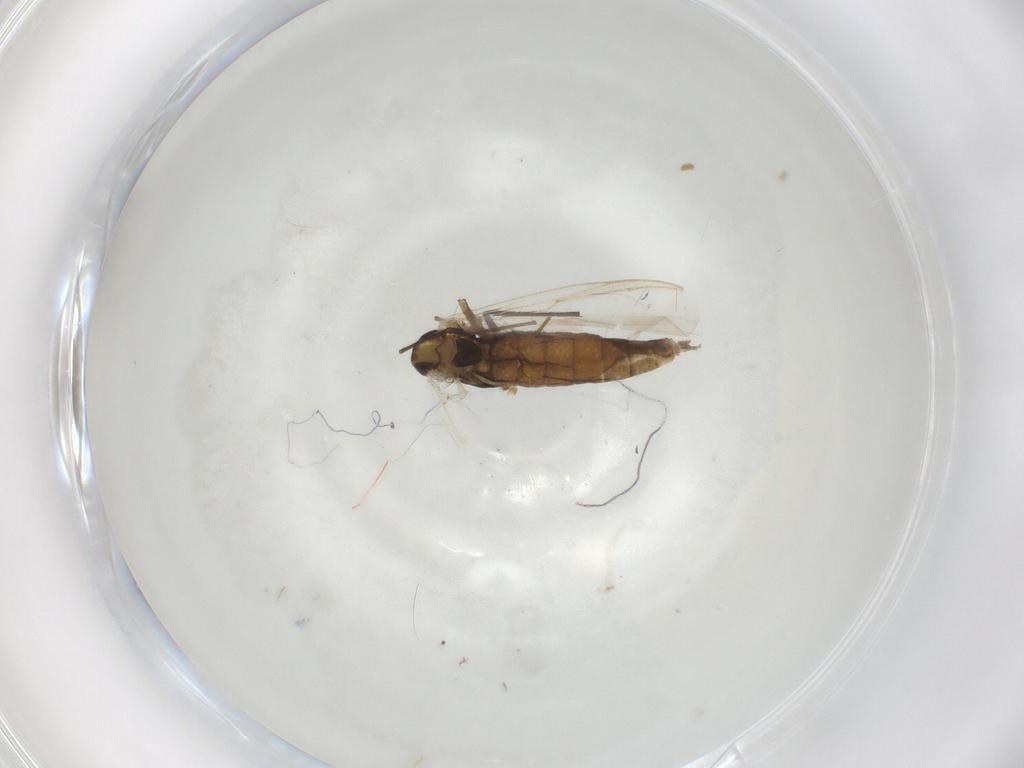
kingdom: Animalia
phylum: Arthropoda
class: Insecta
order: Diptera
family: Chironomidae
